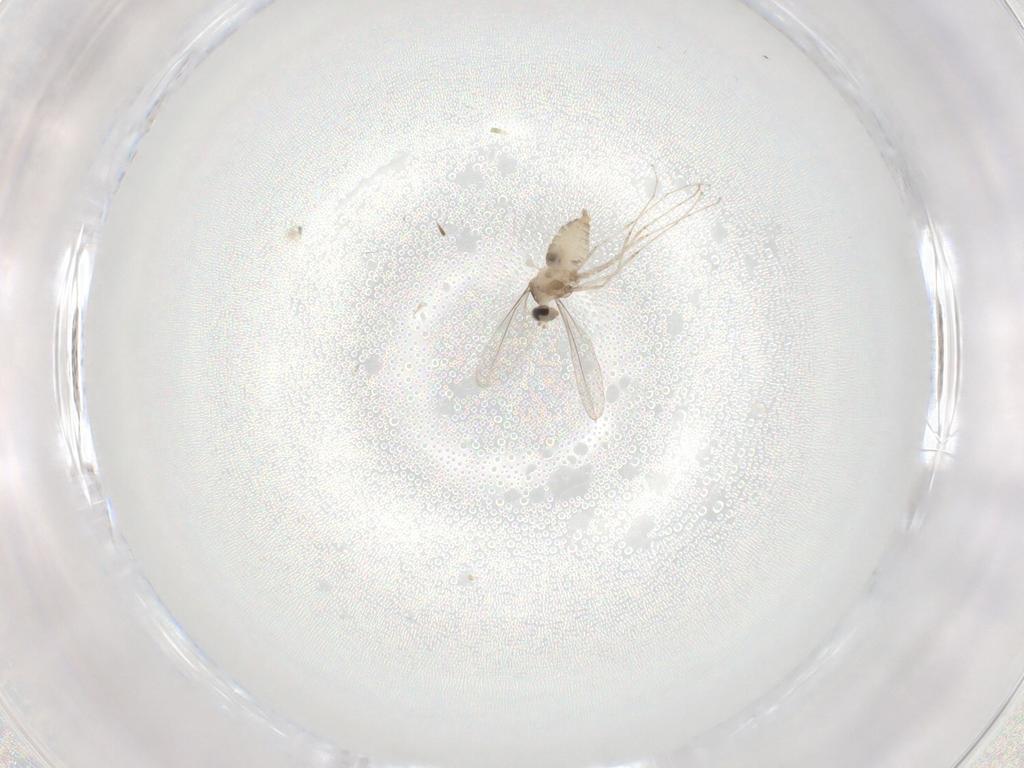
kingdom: Animalia
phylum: Arthropoda
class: Insecta
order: Diptera
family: Cecidomyiidae
